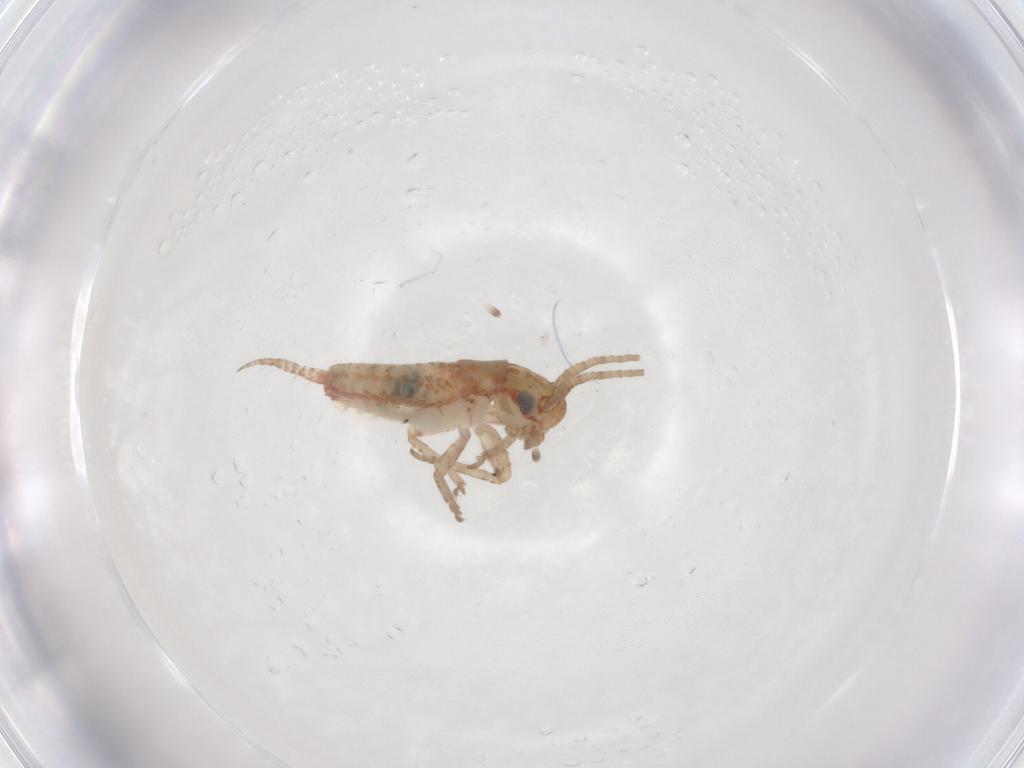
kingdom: Animalia
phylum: Arthropoda
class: Insecta
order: Orthoptera
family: Mogoplistidae
